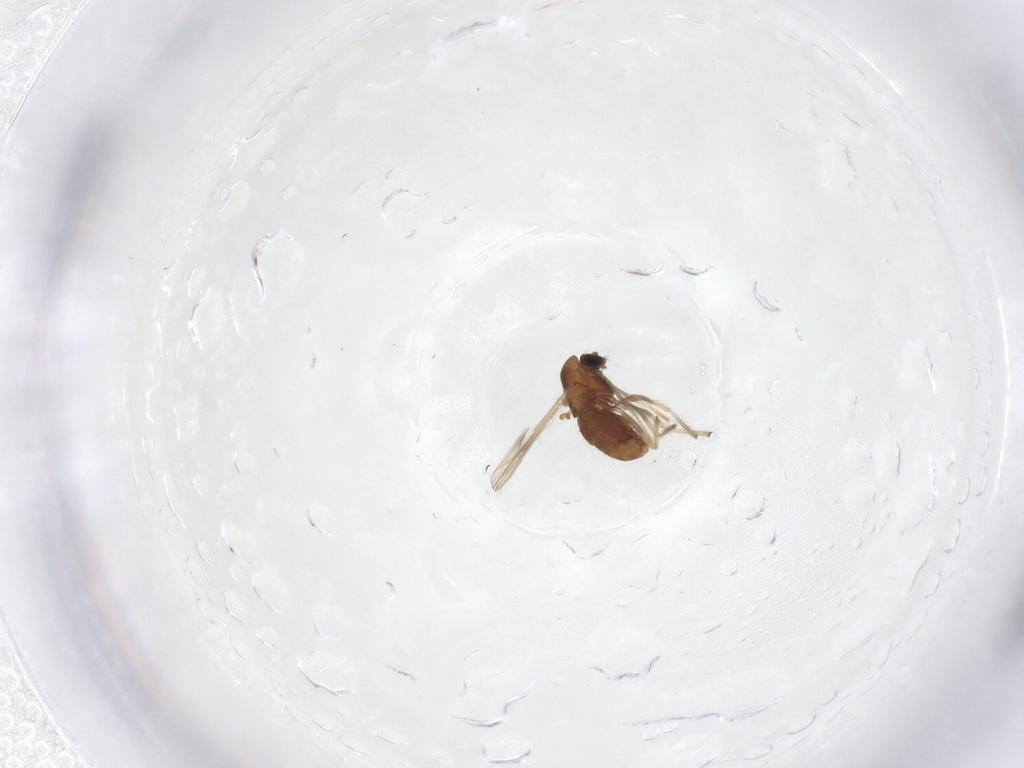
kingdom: Animalia
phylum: Arthropoda
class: Insecta
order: Diptera
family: Chironomidae
